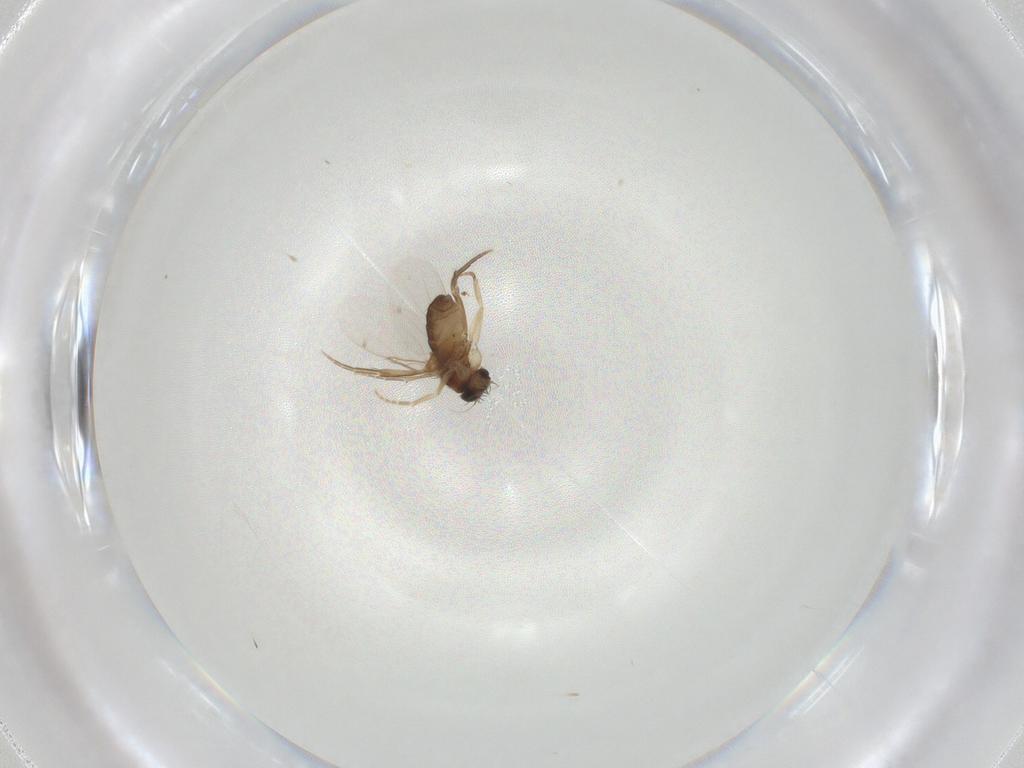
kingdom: Animalia
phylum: Arthropoda
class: Insecta
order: Diptera
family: Phoridae
